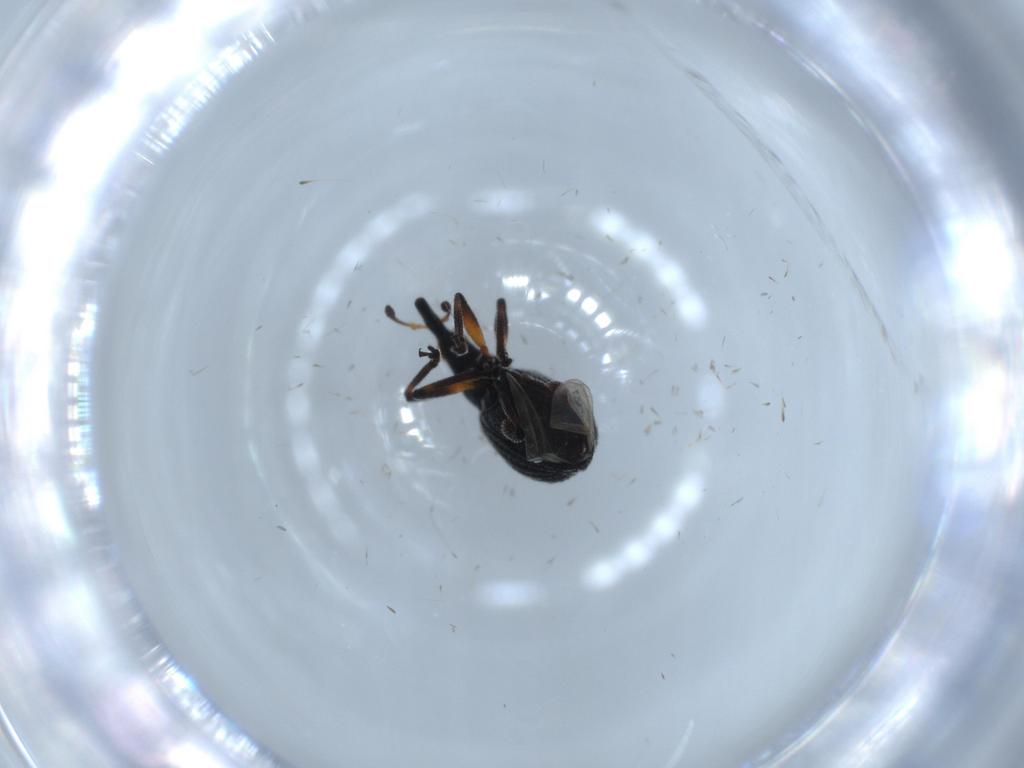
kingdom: Animalia
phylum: Arthropoda
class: Insecta
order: Coleoptera
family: Brentidae
